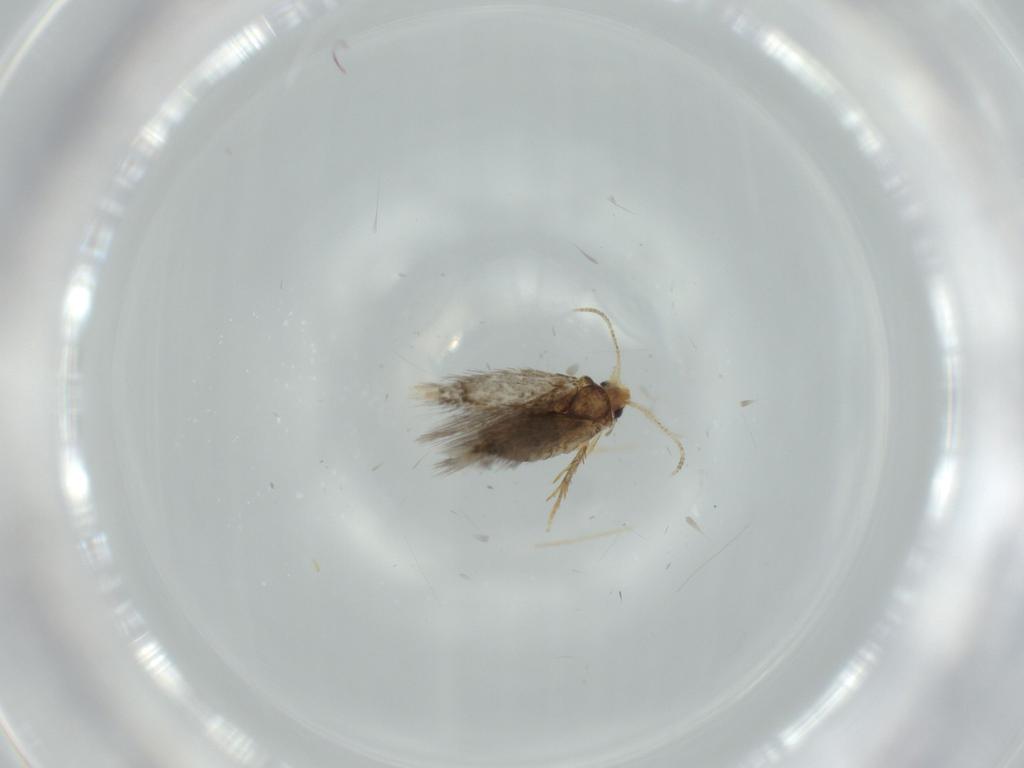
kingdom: Animalia
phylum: Arthropoda
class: Insecta
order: Lepidoptera
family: Nepticulidae
